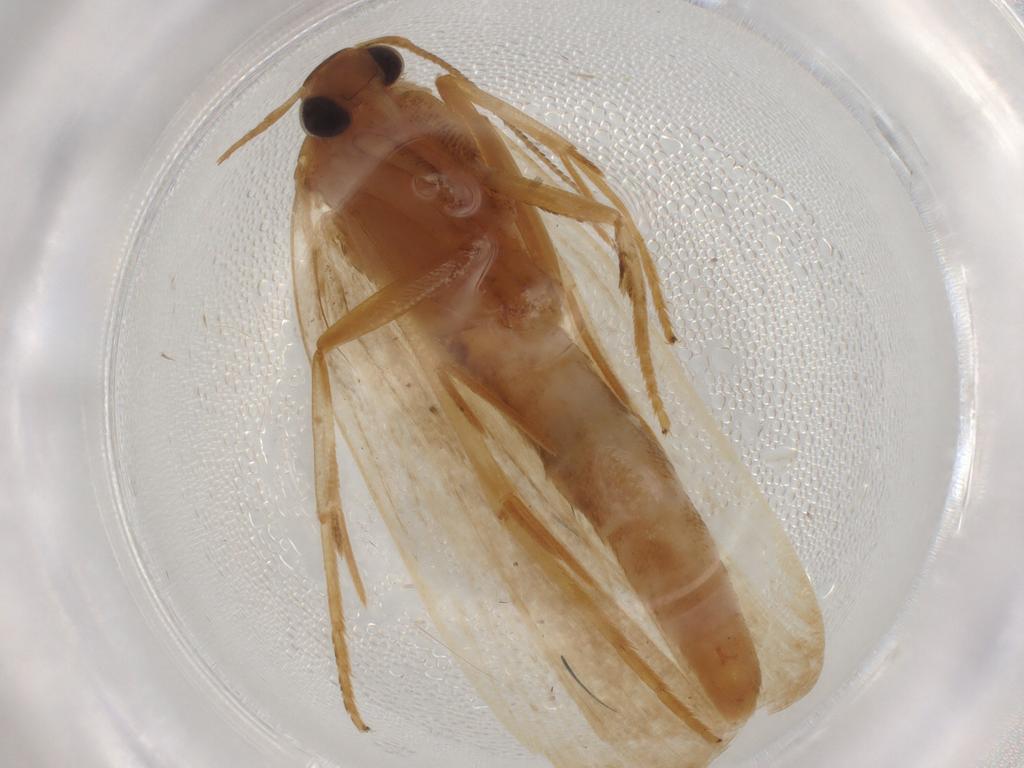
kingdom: Animalia
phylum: Arthropoda
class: Insecta
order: Lepidoptera
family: Gelechiidae
